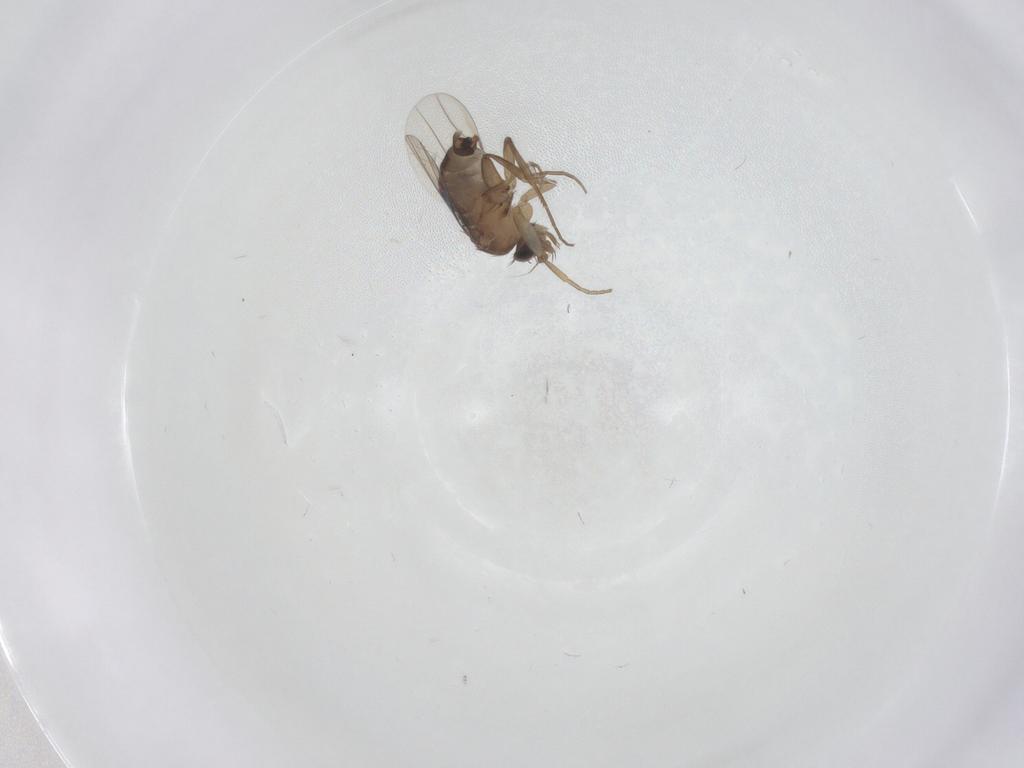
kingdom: Animalia
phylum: Arthropoda
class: Insecta
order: Diptera
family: Phoridae
